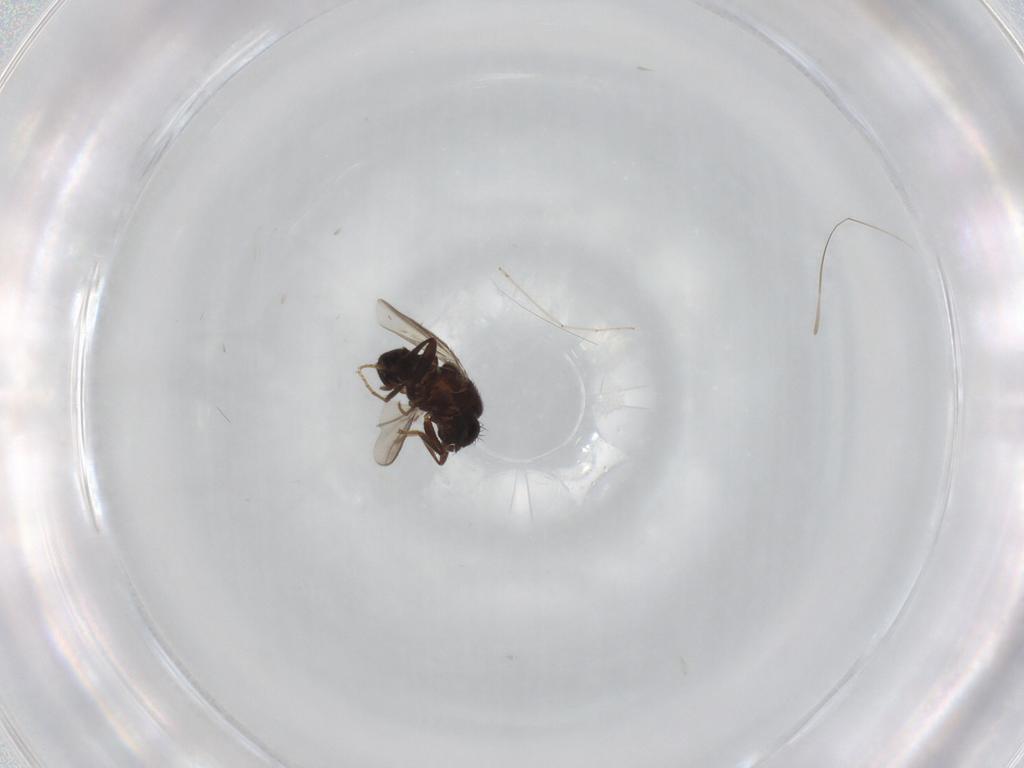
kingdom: Animalia
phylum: Arthropoda
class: Insecta
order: Diptera
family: Sphaeroceridae
